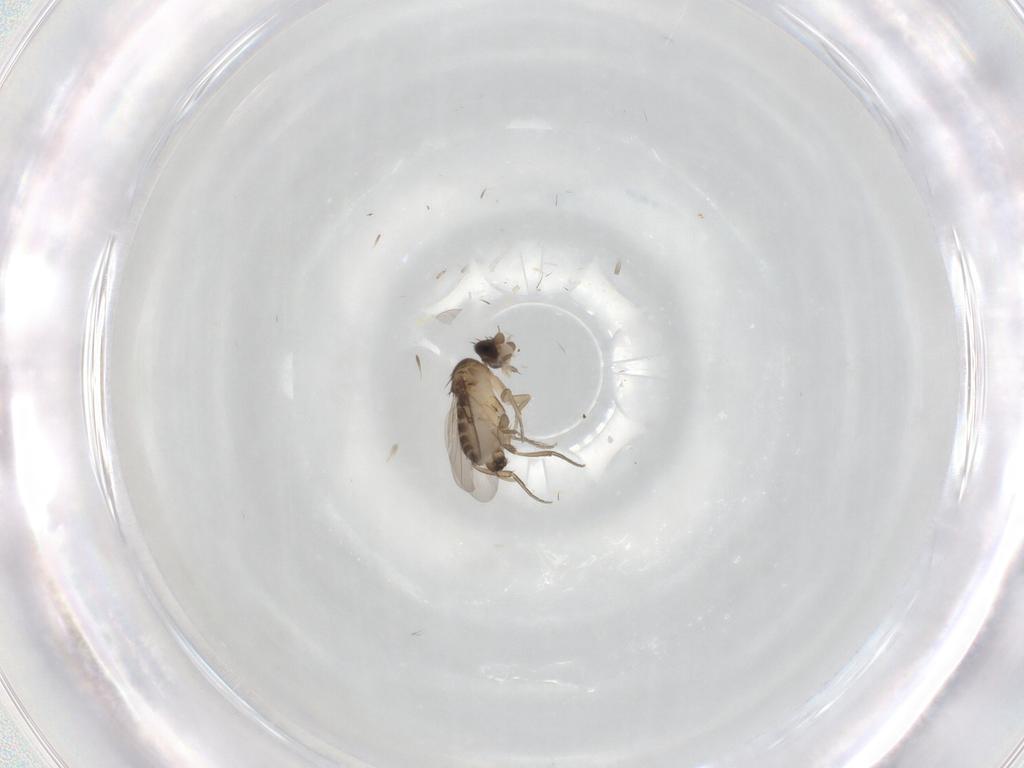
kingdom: Animalia
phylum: Arthropoda
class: Insecta
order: Diptera
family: Phoridae
